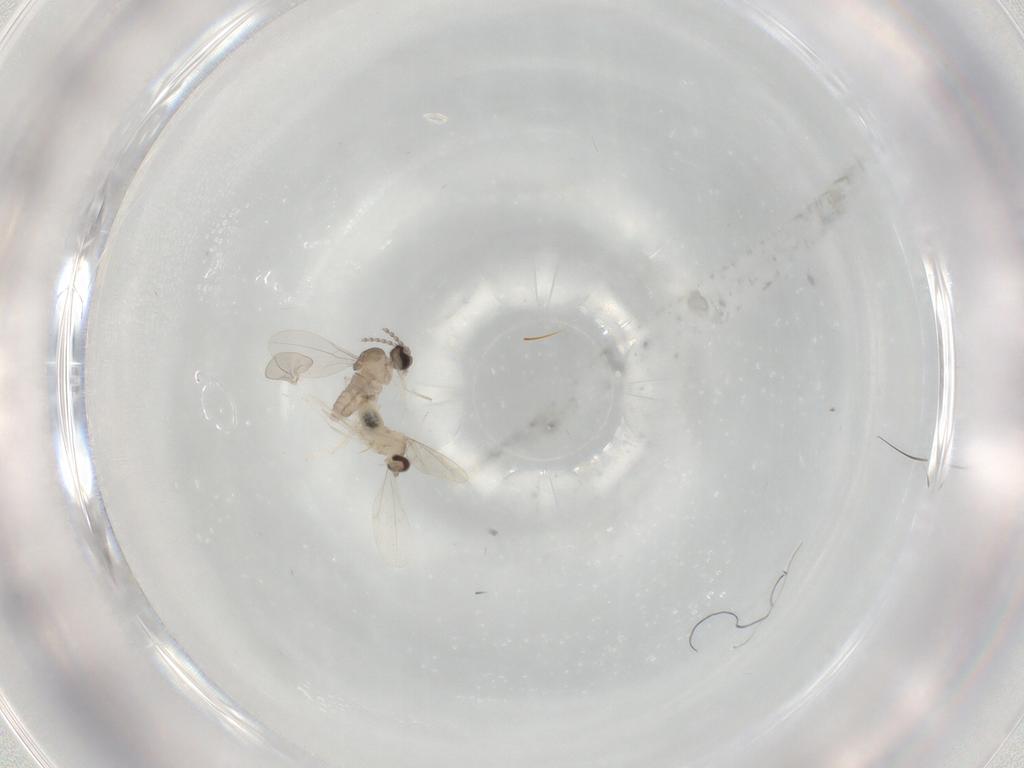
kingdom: Animalia
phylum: Arthropoda
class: Insecta
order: Diptera
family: Cecidomyiidae
